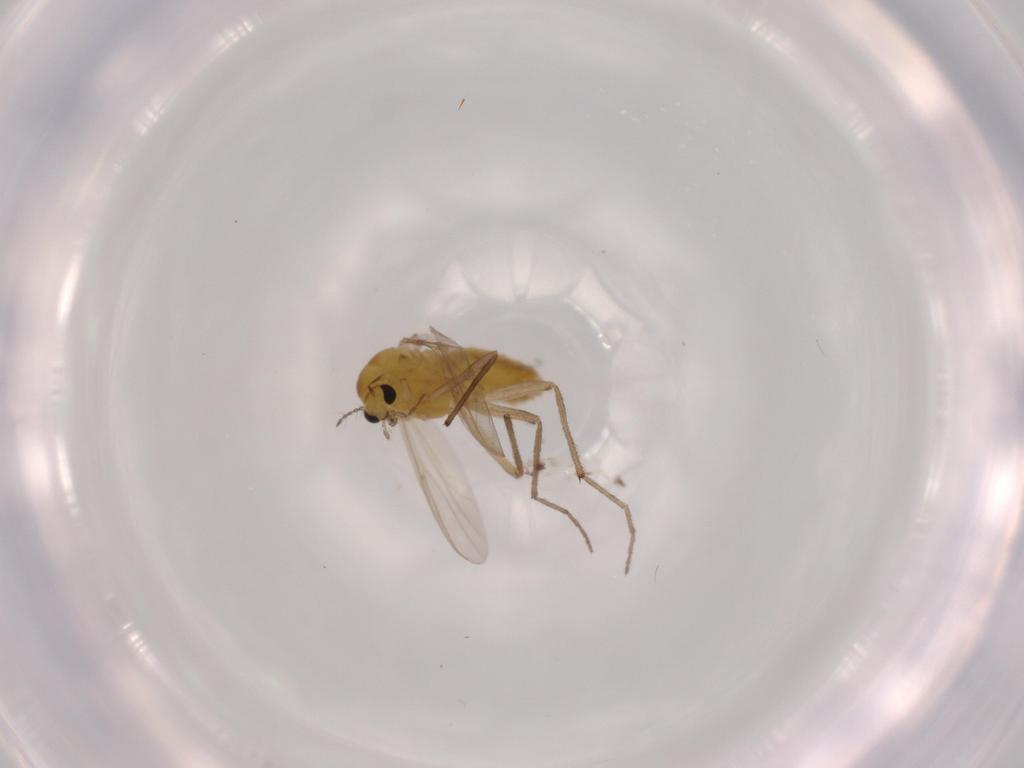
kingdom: Animalia
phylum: Arthropoda
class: Insecta
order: Diptera
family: Chironomidae
